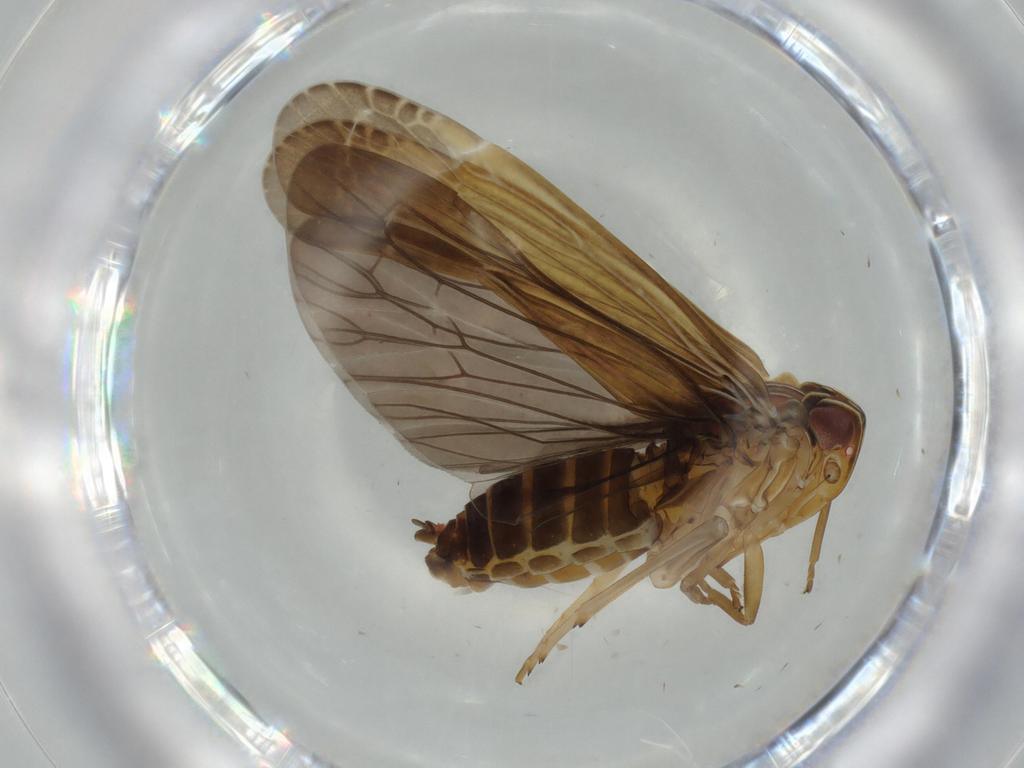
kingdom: Animalia
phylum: Arthropoda
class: Insecta
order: Hemiptera
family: Achilidae
